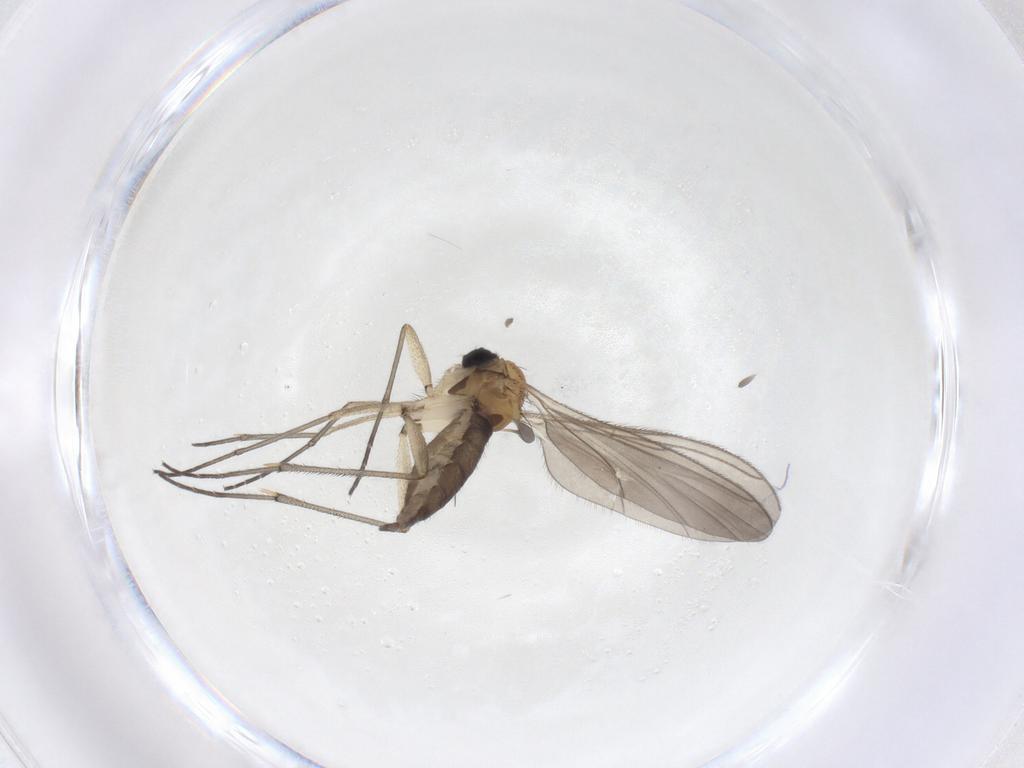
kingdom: Animalia
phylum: Arthropoda
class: Insecta
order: Diptera
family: Sciaridae
